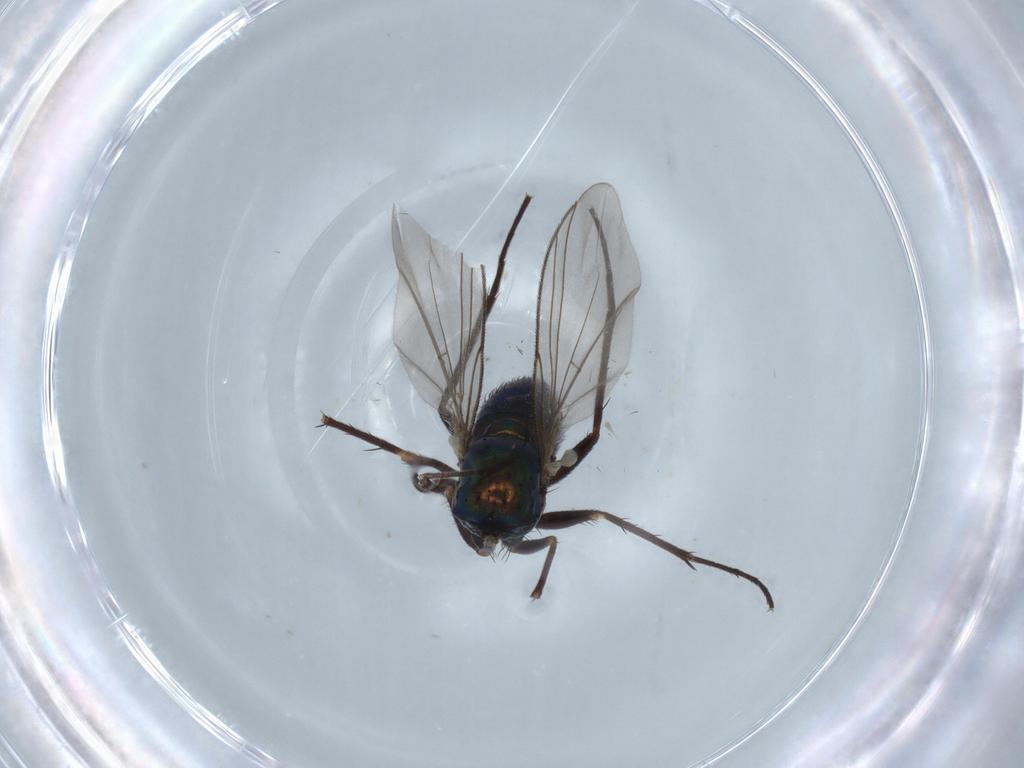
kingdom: Animalia
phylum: Arthropoda
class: Insecta
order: Diptera
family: Dolichopodidae
